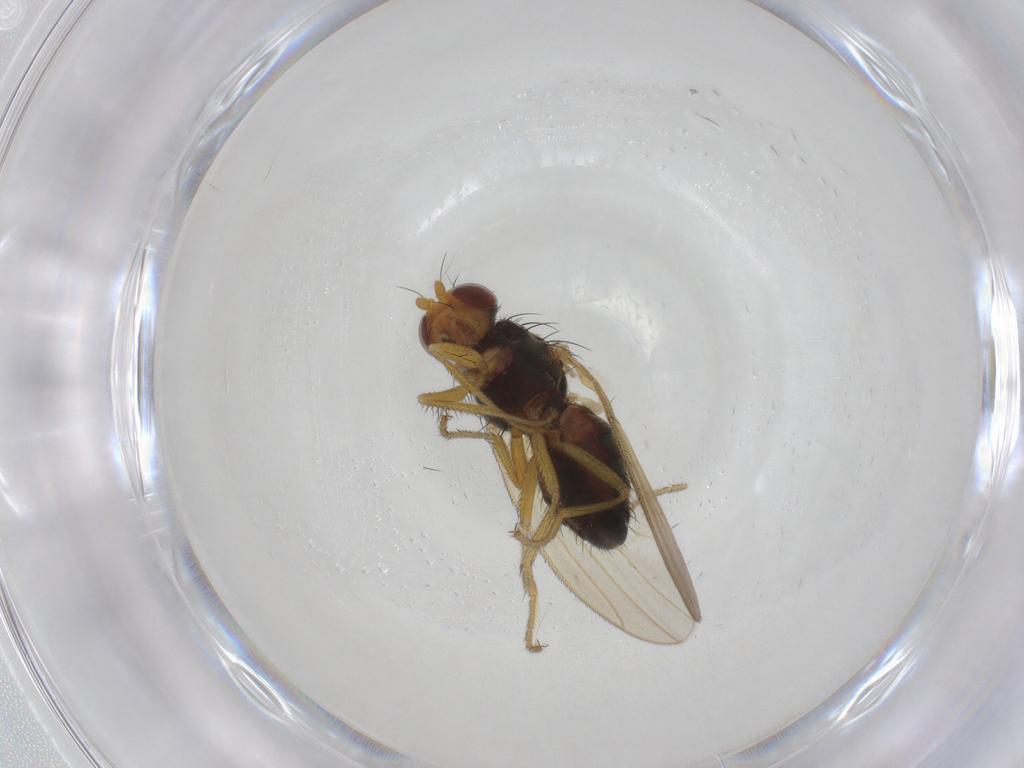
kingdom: Animalia
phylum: Arthropoda
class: Insecta
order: Diptera
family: Heleomyzidae
